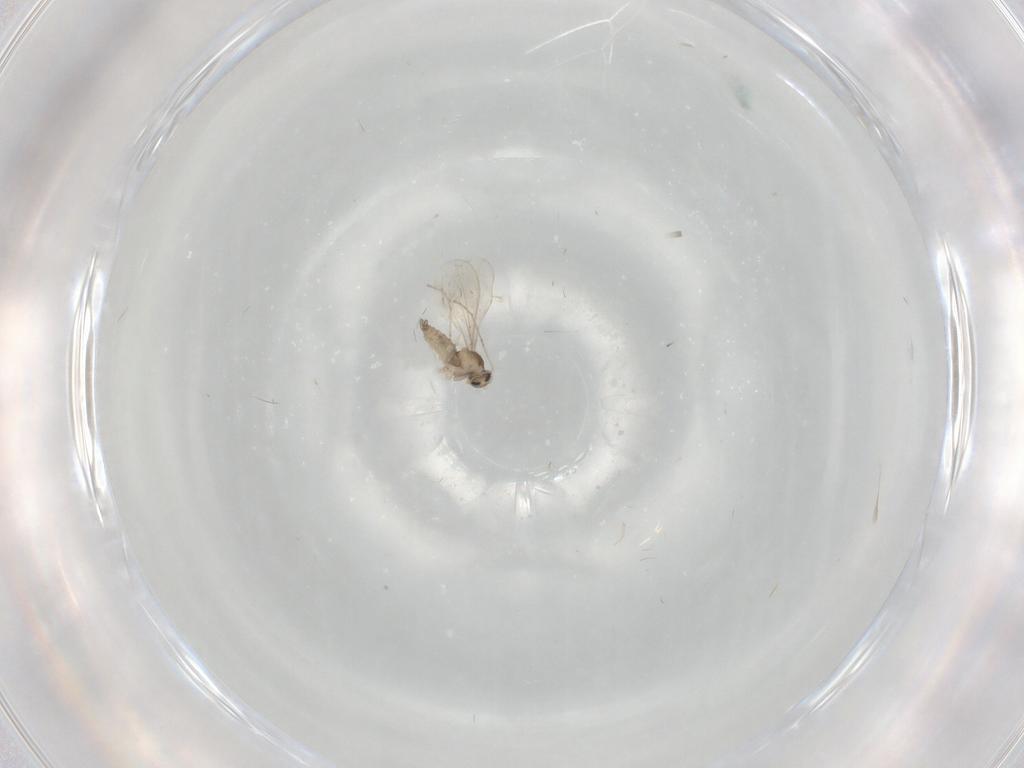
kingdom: Animalia
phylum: Arthropoda
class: Insecta
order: Diptera
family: Cecidomyiidae
